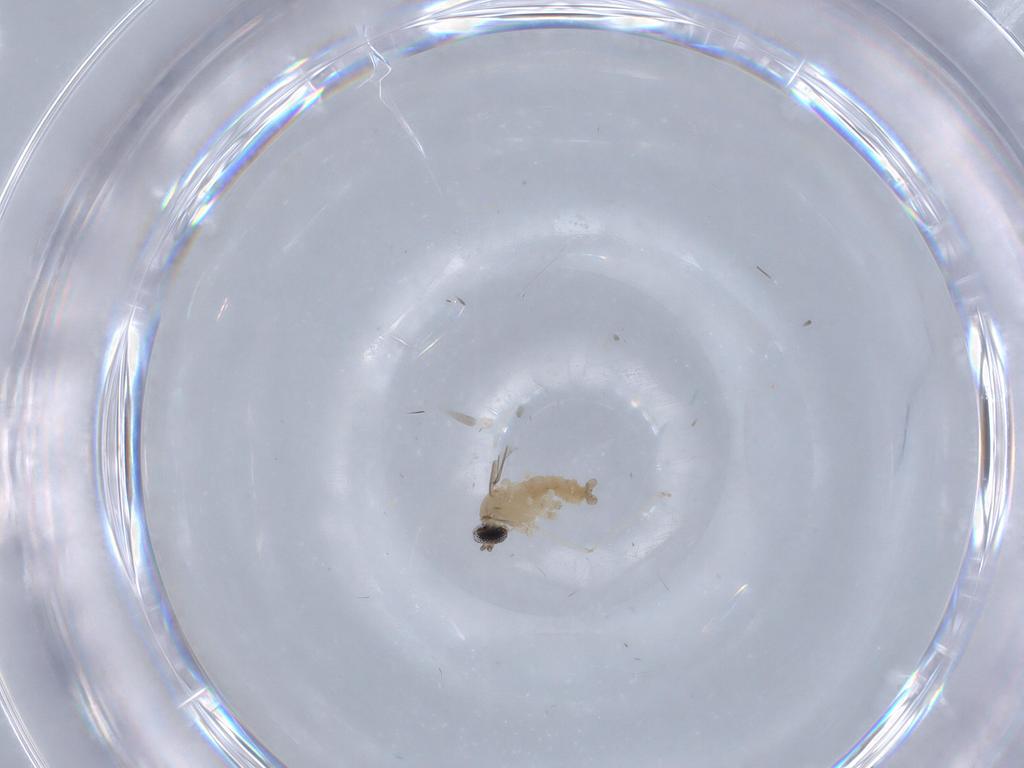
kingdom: Animalia
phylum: Arthropoda
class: Insecta
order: Diptera
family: Cecidomyiidae
